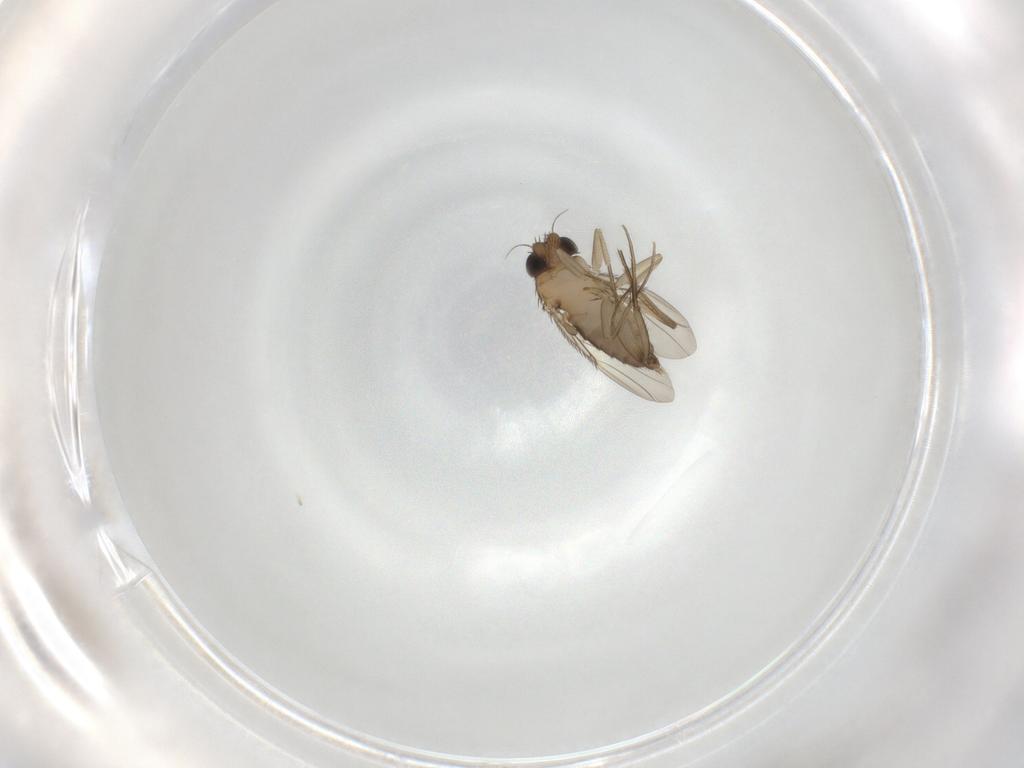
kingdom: Animalia
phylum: Arthropoda
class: Insecta
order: Diptera
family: Phoridae
